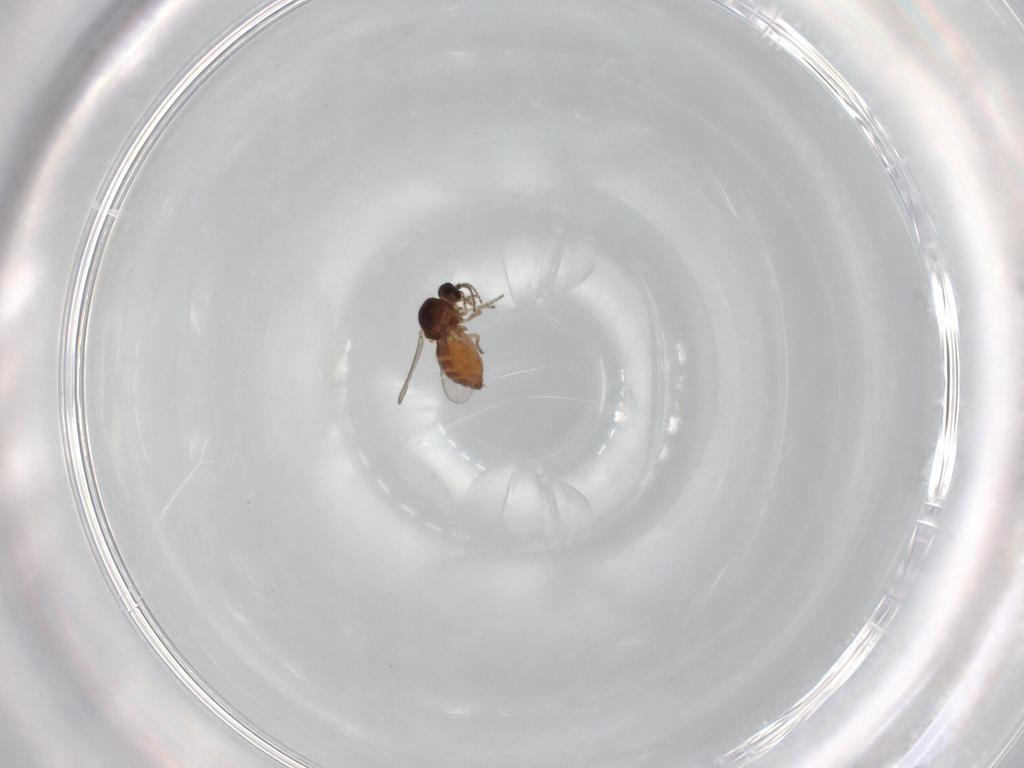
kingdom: Animalia
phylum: Arthropoda
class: Insecta
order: Diptera
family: Ceratopogonidae
